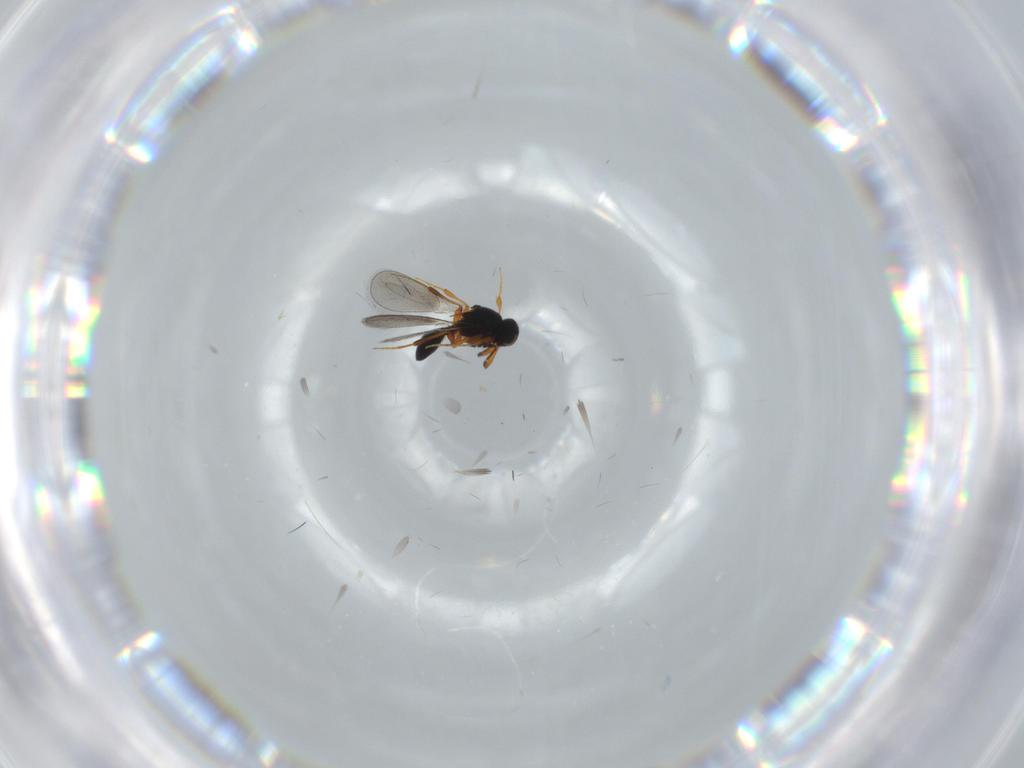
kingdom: Animalia
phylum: Arthropoda
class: Insecta
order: Hymenoptera
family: Platygastridae
